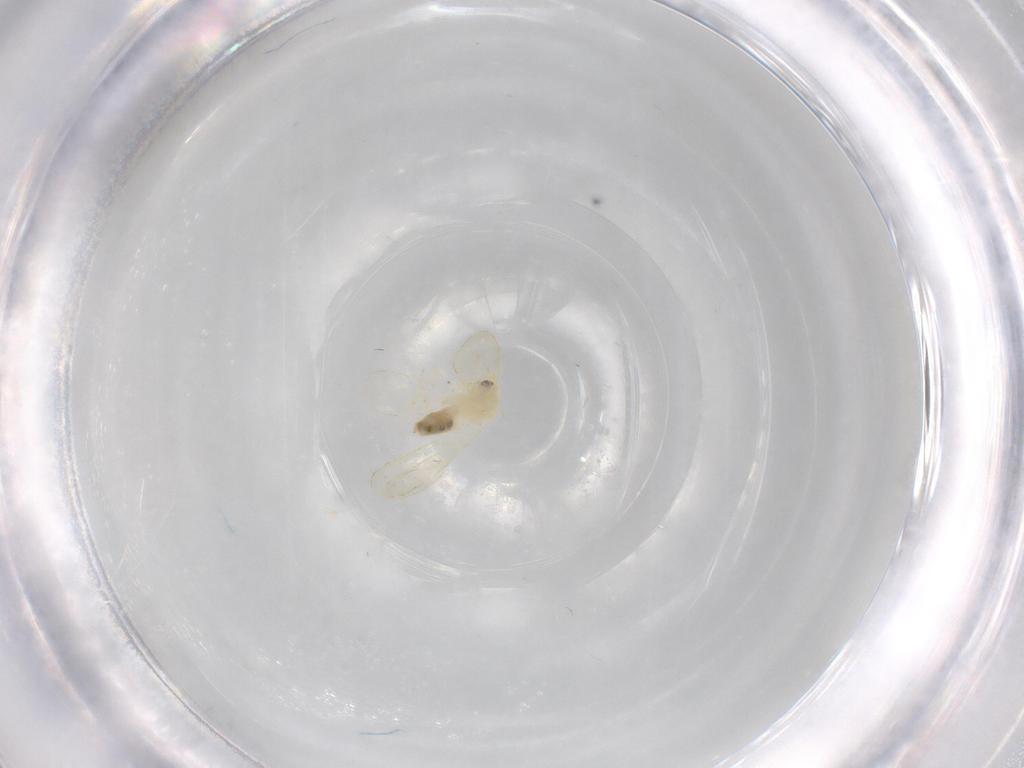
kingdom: Animalia
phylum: Arthropoda
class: Insecta
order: Hemiptera
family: Aleyrodidae
